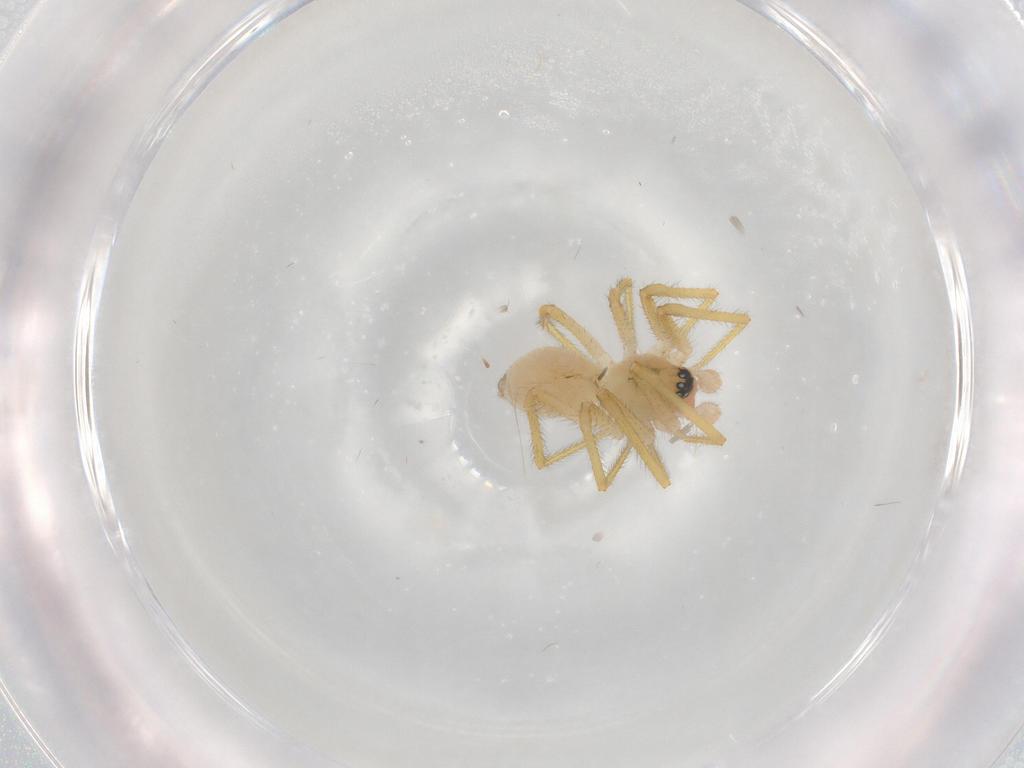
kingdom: Animalia
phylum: Arthropoda
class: Arachnida
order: Araneae
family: Linyphiidae
